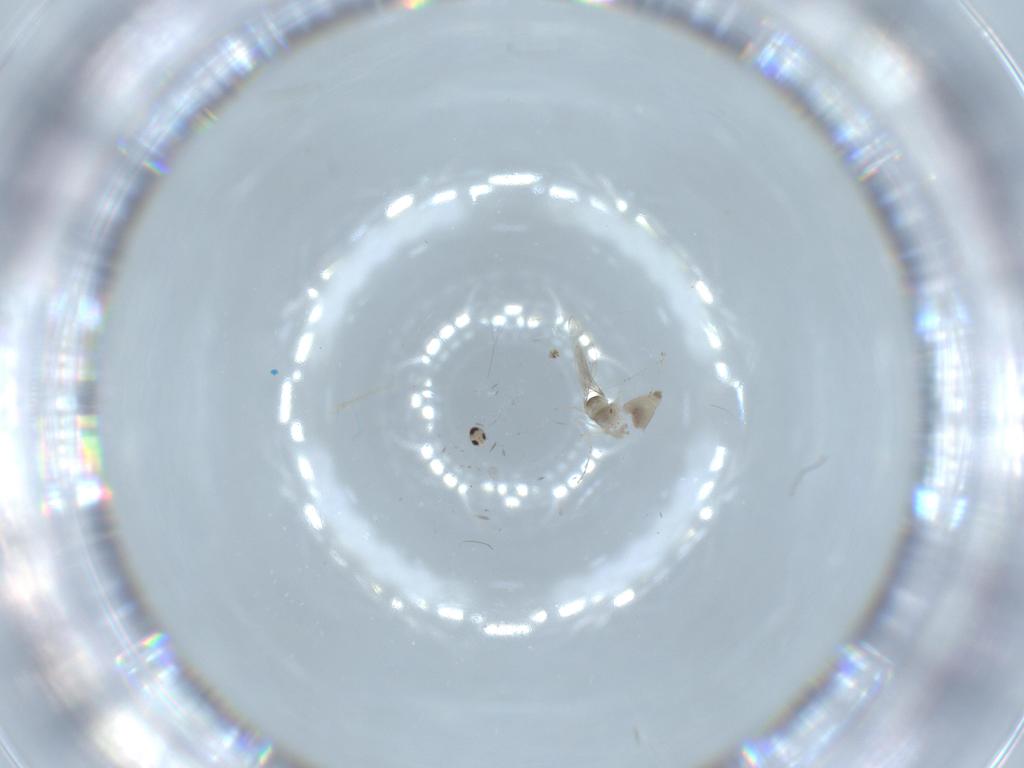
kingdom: Animalia
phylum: Arthropoda
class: Insecta
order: Diptera
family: Cecidomyiidae
